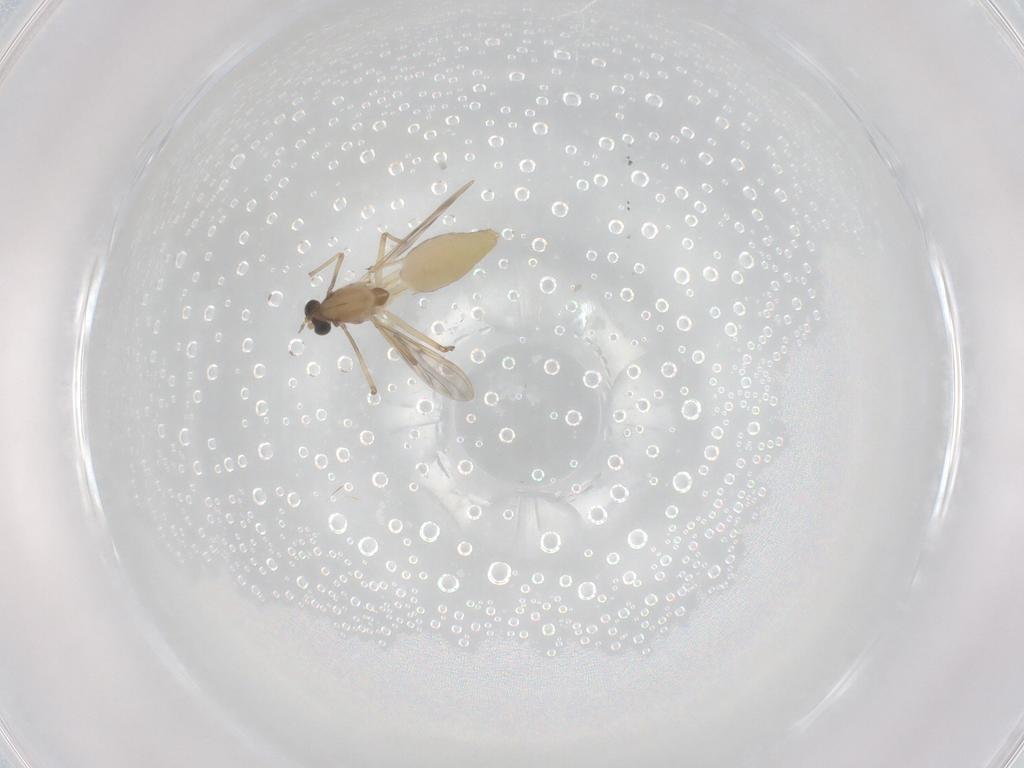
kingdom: Animalia
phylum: Arthropoda
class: Insecta
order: Diptera
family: Chironomidae
